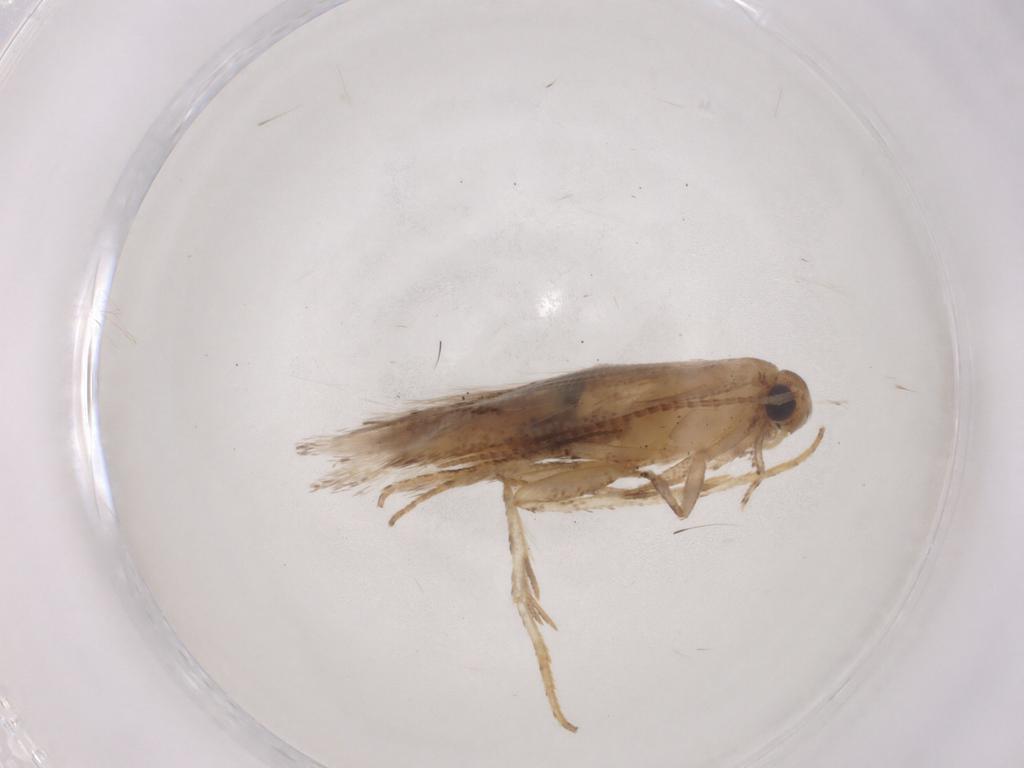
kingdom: Animalia
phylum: Arthropoda
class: Insecta
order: Lepidoptera
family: Gelechiidae
